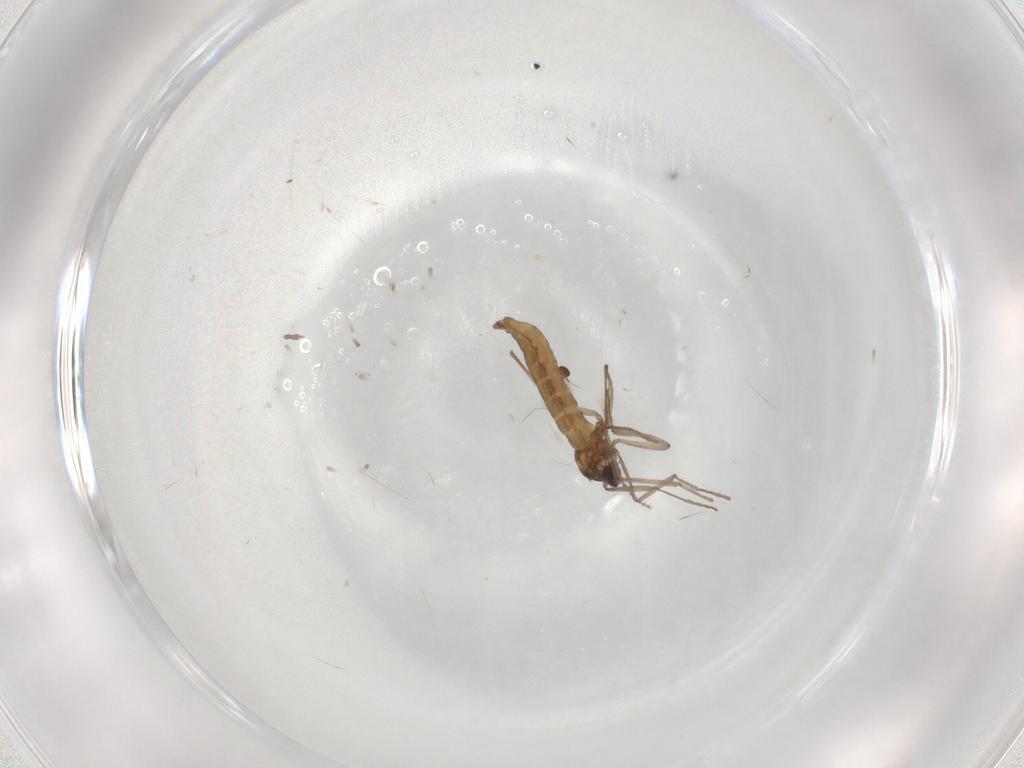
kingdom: Animalia
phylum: Arthropoda
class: Insecta
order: Diptera
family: Cecidomyiidae
